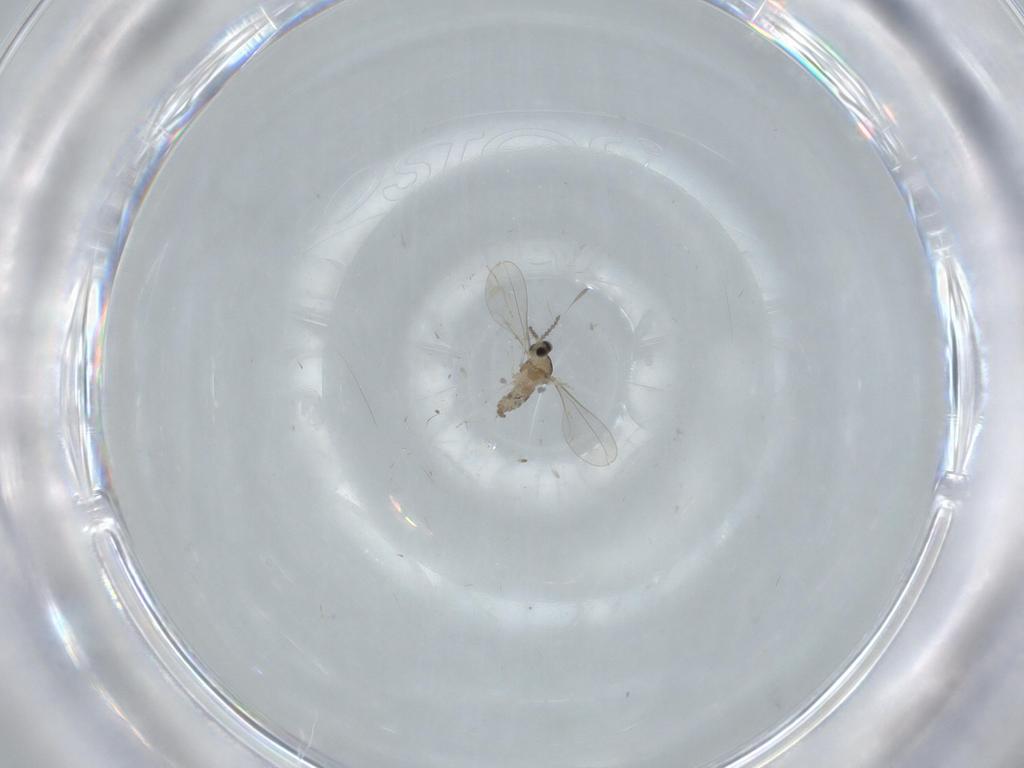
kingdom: Animalia
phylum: Arthropoda
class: Insecta
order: Diptera
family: Cecidomyiidae
